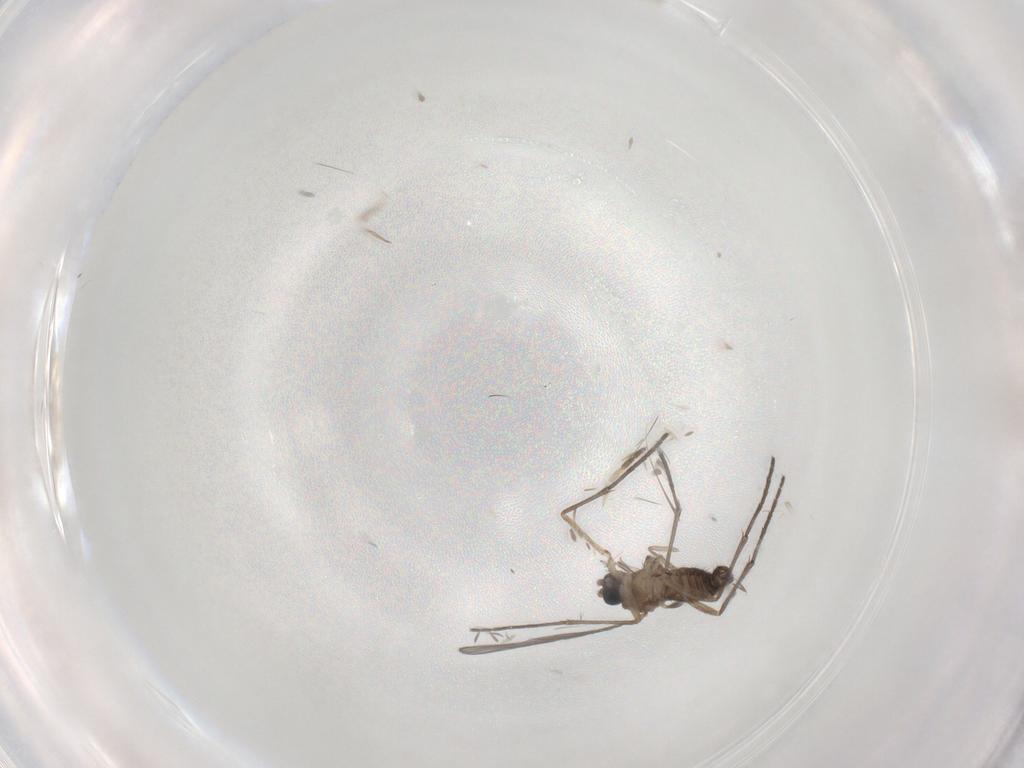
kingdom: Animalia
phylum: Arthropoda
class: Insecta
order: Diptera
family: Sciaridae
